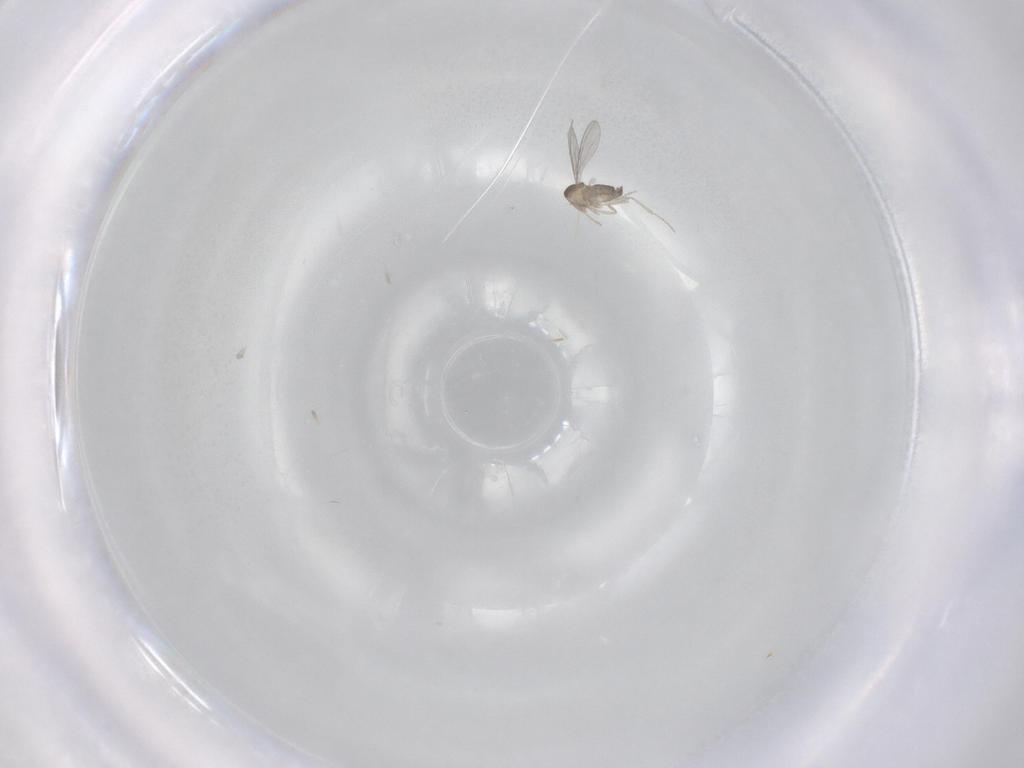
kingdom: Animalia
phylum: Arthropoda
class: Insecta
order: Diptera
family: Cecidomyiidae
